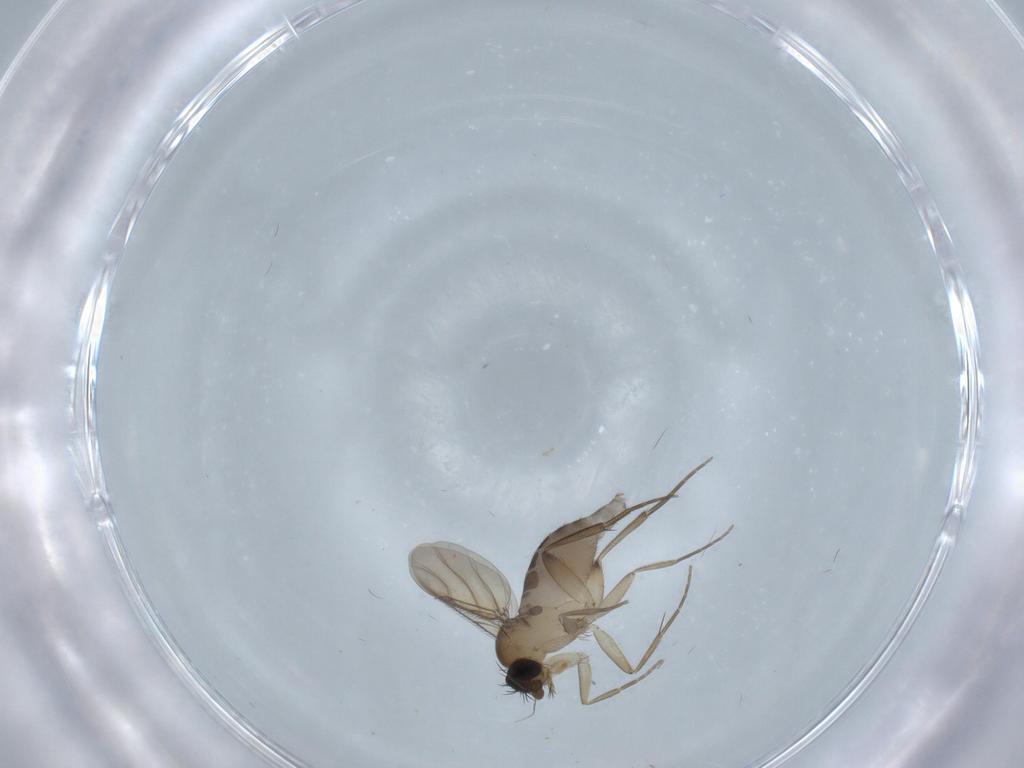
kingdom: Animalia
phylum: Arthropoda
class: Insecta
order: Diptera
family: Phoridae
